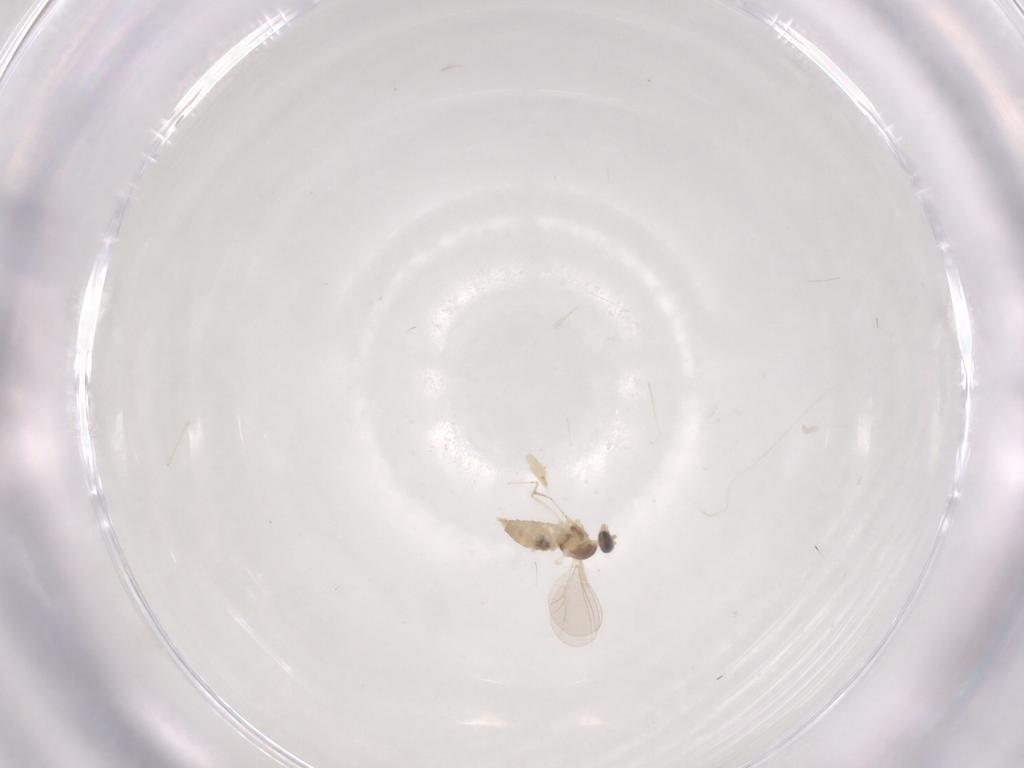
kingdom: Animalia
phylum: Arthropoda
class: Insecta
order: Diptera
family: Cecidomyiidae
